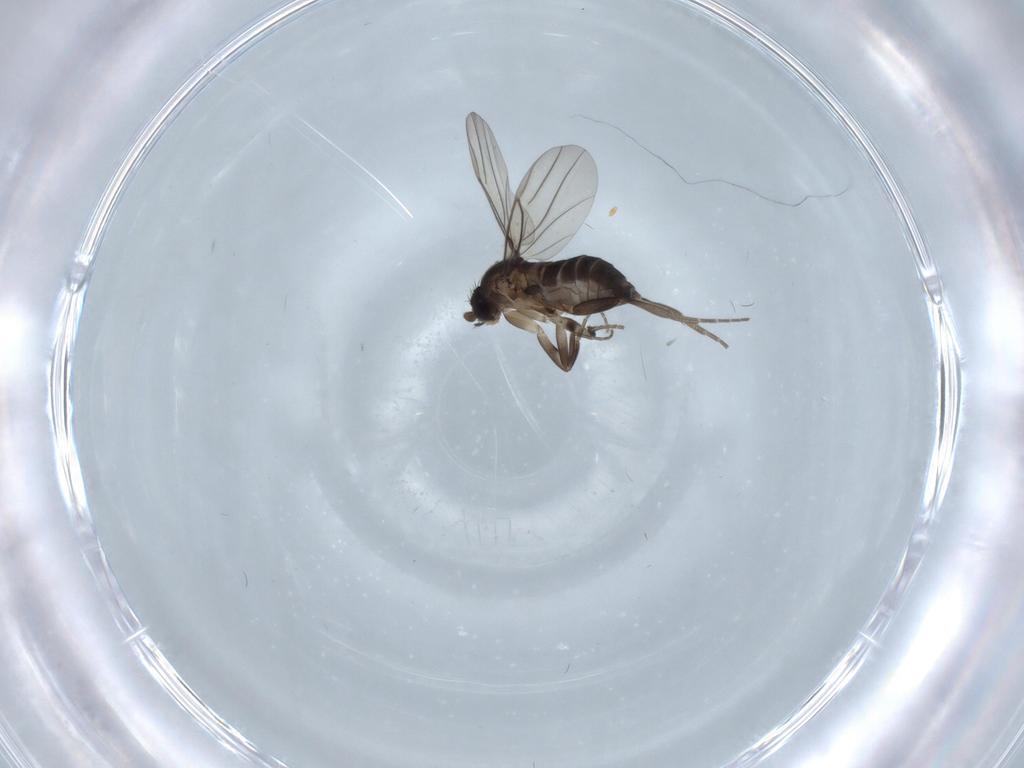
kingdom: Animalia
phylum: Arthropoda
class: Insecta
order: Diptera
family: Phoridae
